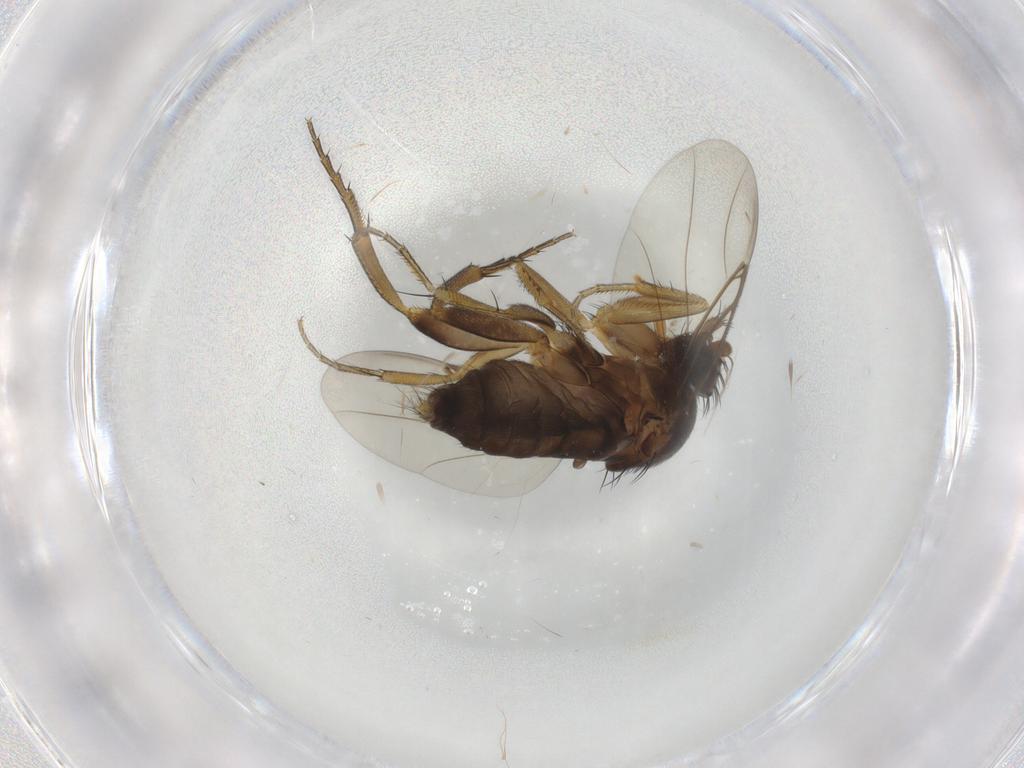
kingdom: Animalia
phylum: Arthropoda
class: Insecta
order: Diptera
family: Phoridae
